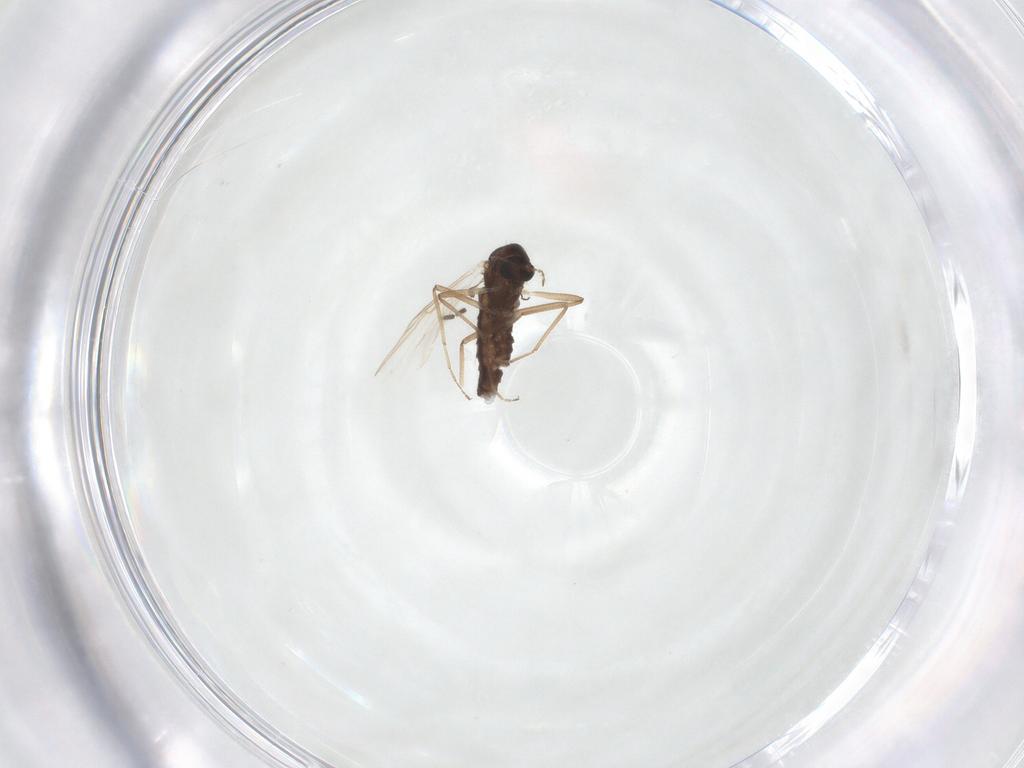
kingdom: Animalia
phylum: Arthropoda
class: Insecta
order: Diptera
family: Chironomidae
